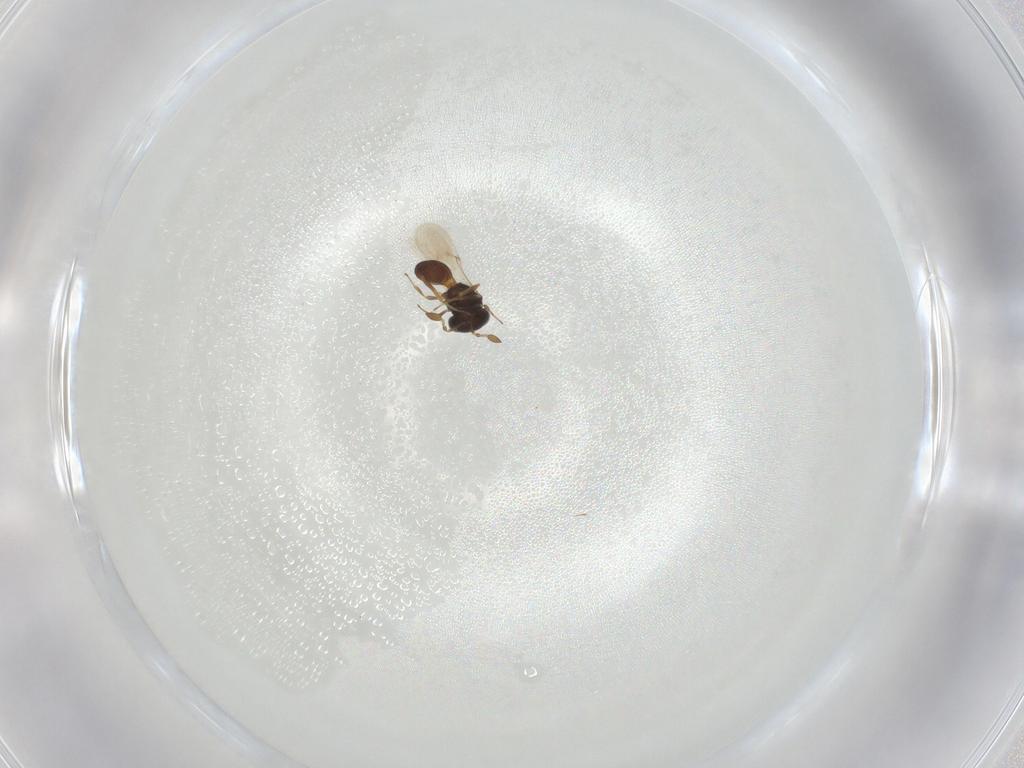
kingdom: Animalia
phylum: Arthropoda
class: Insecta
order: Hymenoptera
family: Scelionidae
